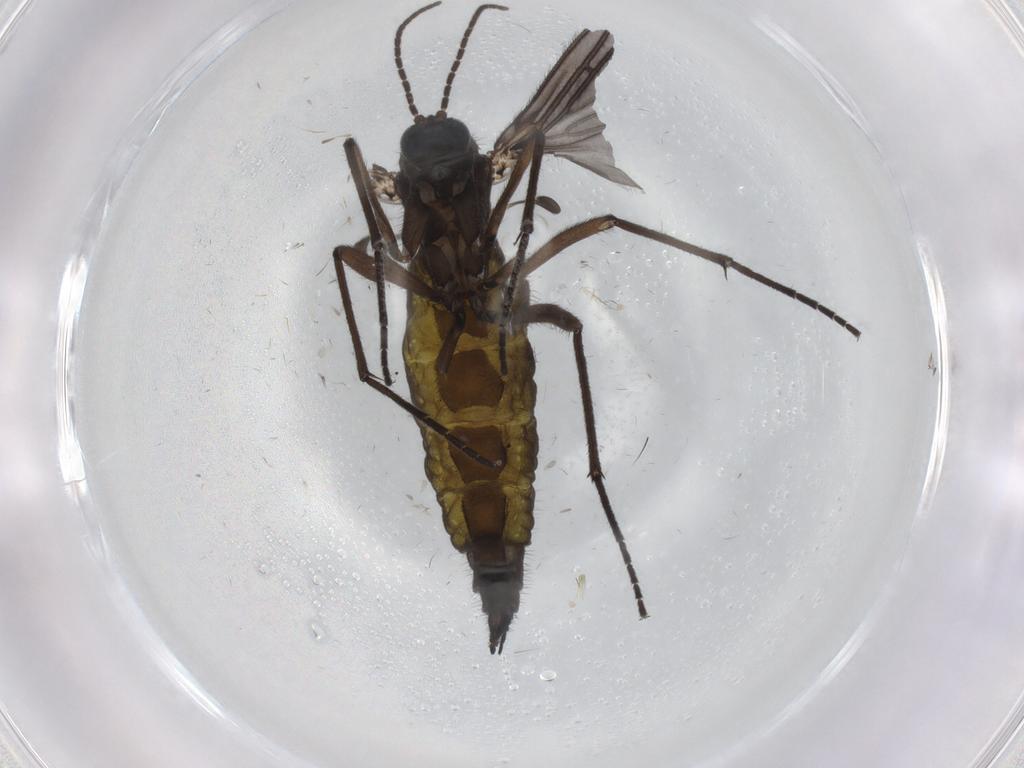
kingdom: Animalia
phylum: Arthropoda
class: Insecta
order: Diptera
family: Sciaridae
